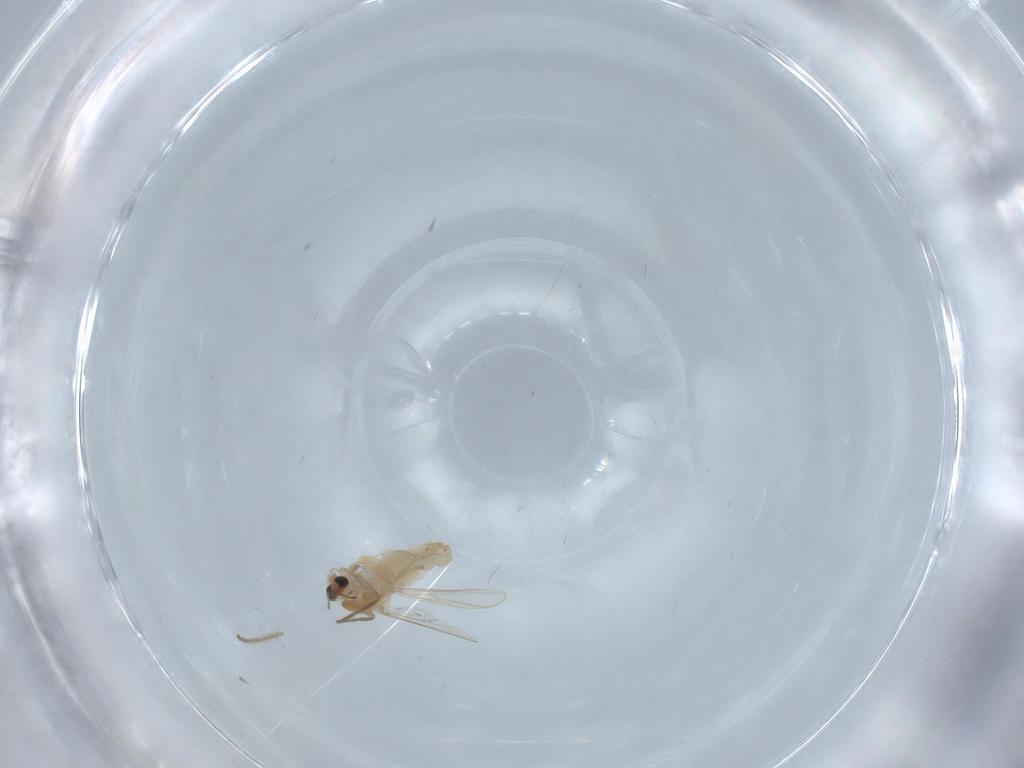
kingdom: Animalia
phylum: Arthropoda
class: Insecta
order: Diptera
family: Chironomidae
